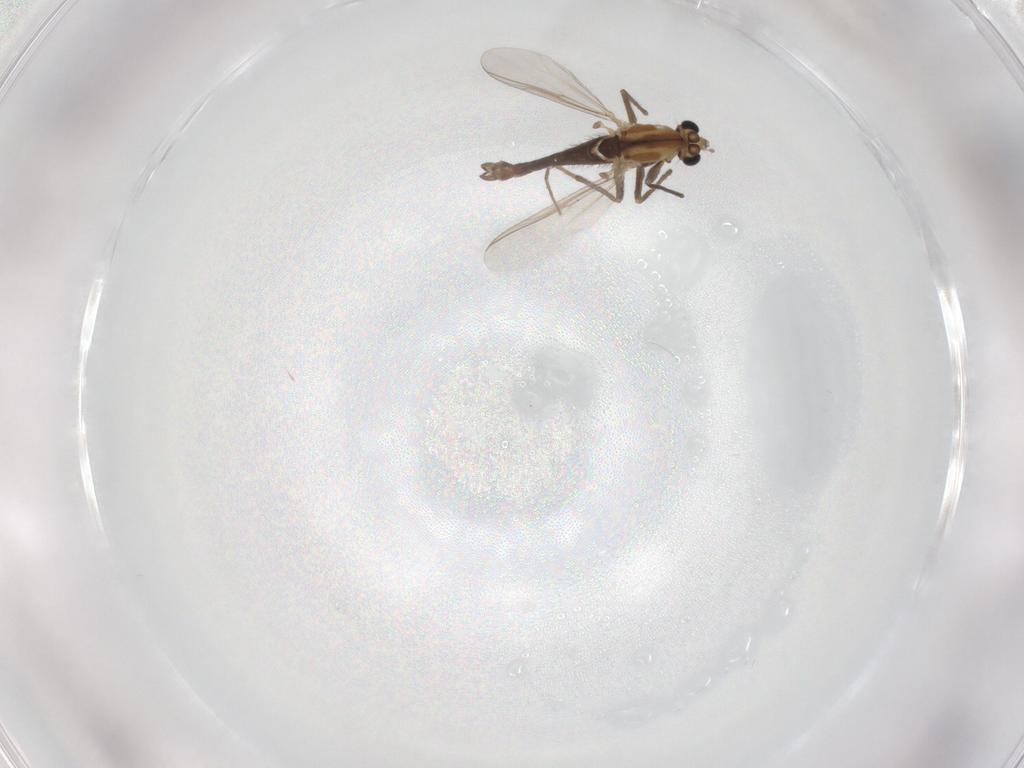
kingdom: Animalia
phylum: Arthropoda
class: Insecta
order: Diptera
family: Chironomidae
